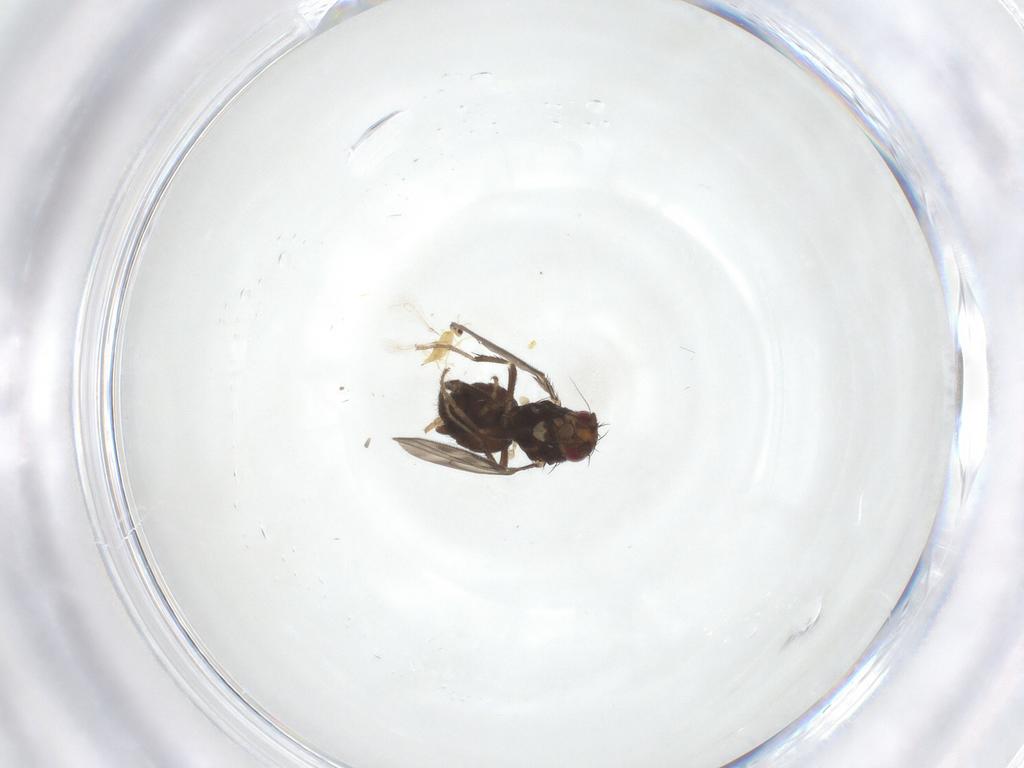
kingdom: Animalia
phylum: Arthropoda
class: Insecta
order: Diptera
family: Sphaeroceridae
